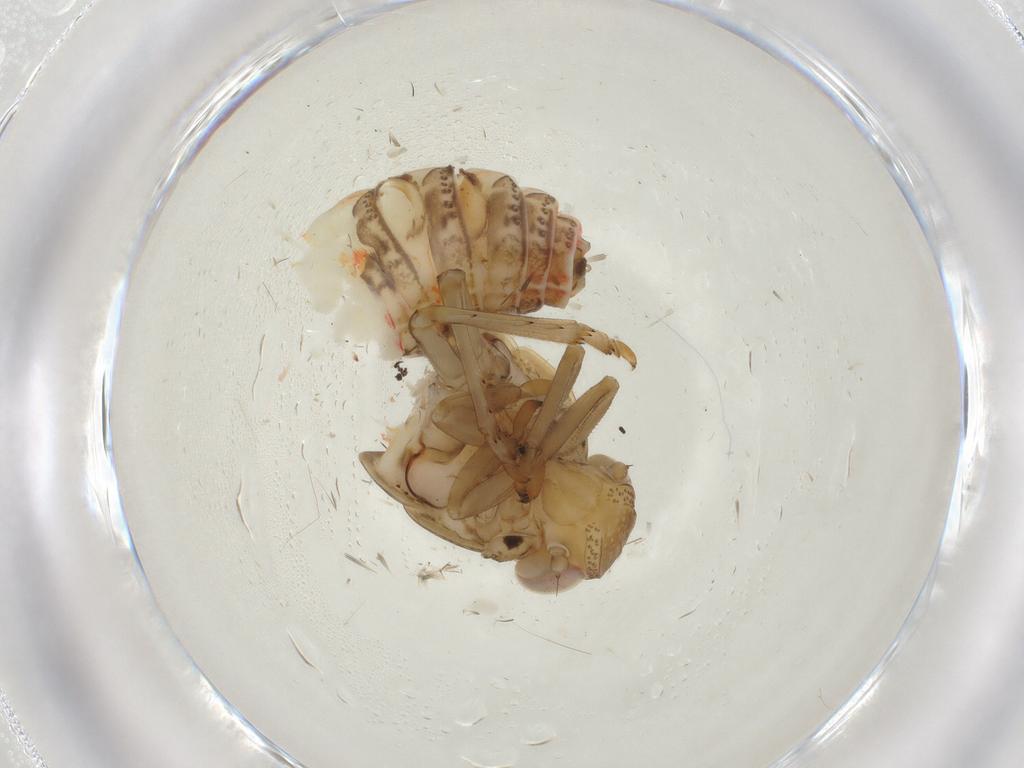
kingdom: Animalia
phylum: Arthropoda
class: Insecta
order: Hemiptera
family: Issidae
